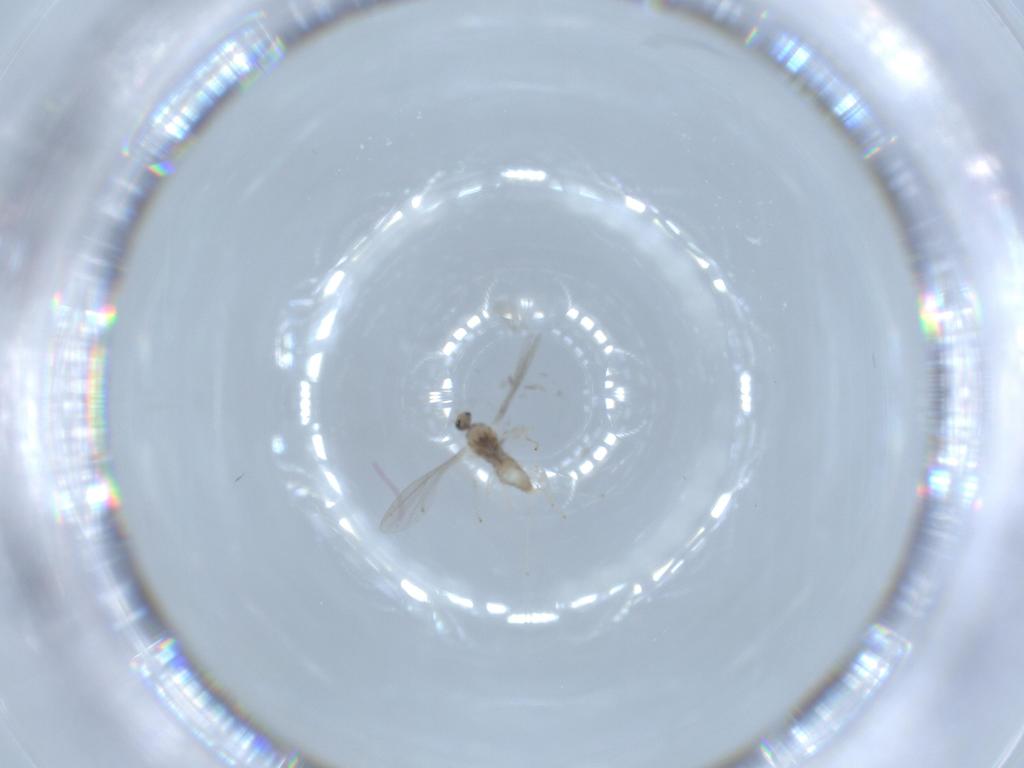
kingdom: Animalia
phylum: Arthropoda
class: Insecta
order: Diptera
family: Cecidomyiidae
